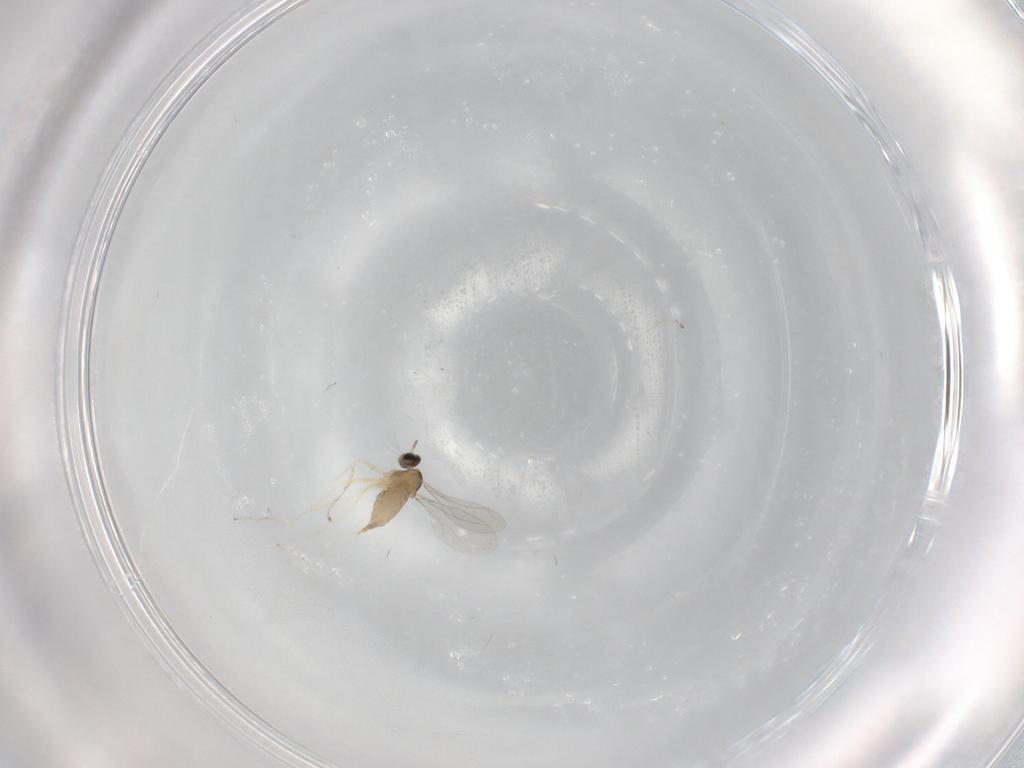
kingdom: Animalia
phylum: Arthropoda
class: Insecta
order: Diptera
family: Cecidomyiidae
